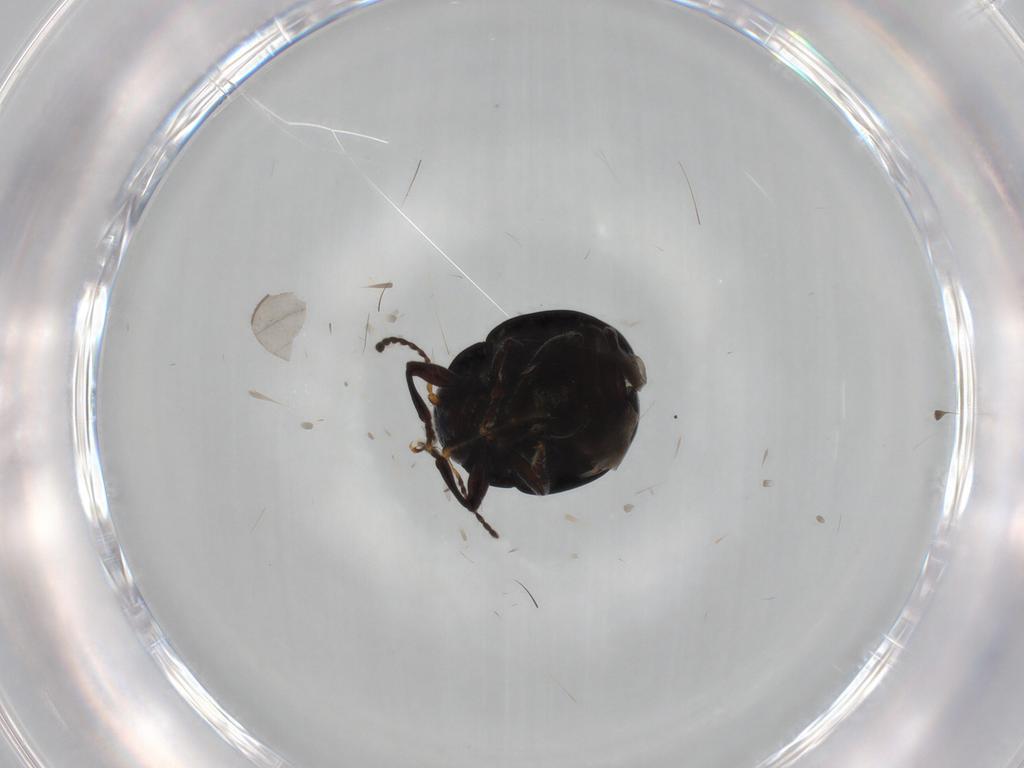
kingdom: Animalia
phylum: Arthropoda
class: Insecta
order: Coleoptera
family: Chrysomelidae
